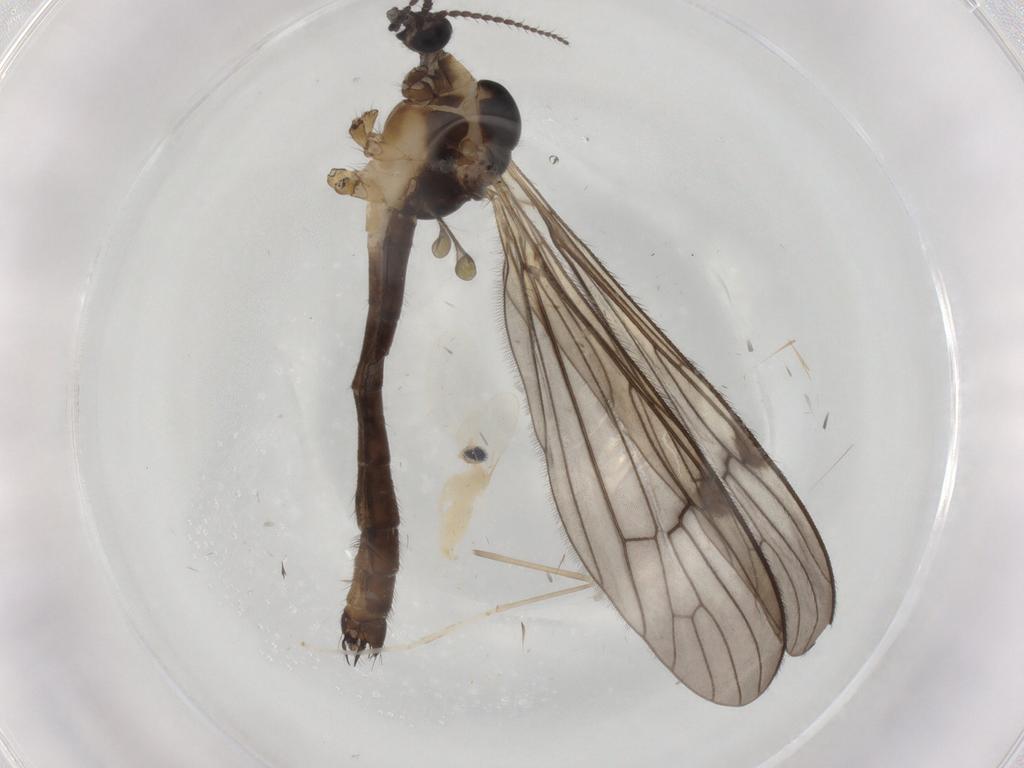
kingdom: Animalia
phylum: Arthropoda
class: Insecta
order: Diptera
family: Limoniidae
